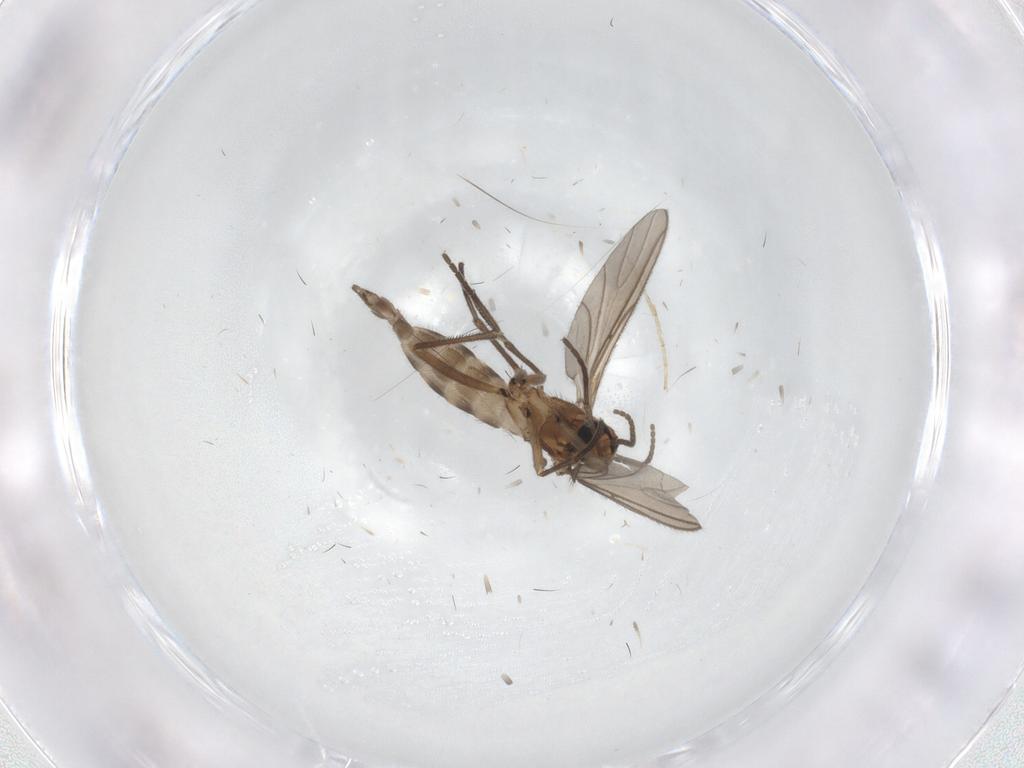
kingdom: Animalia
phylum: Arthropoda
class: Insecta
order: Diptera
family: Sciaridae
